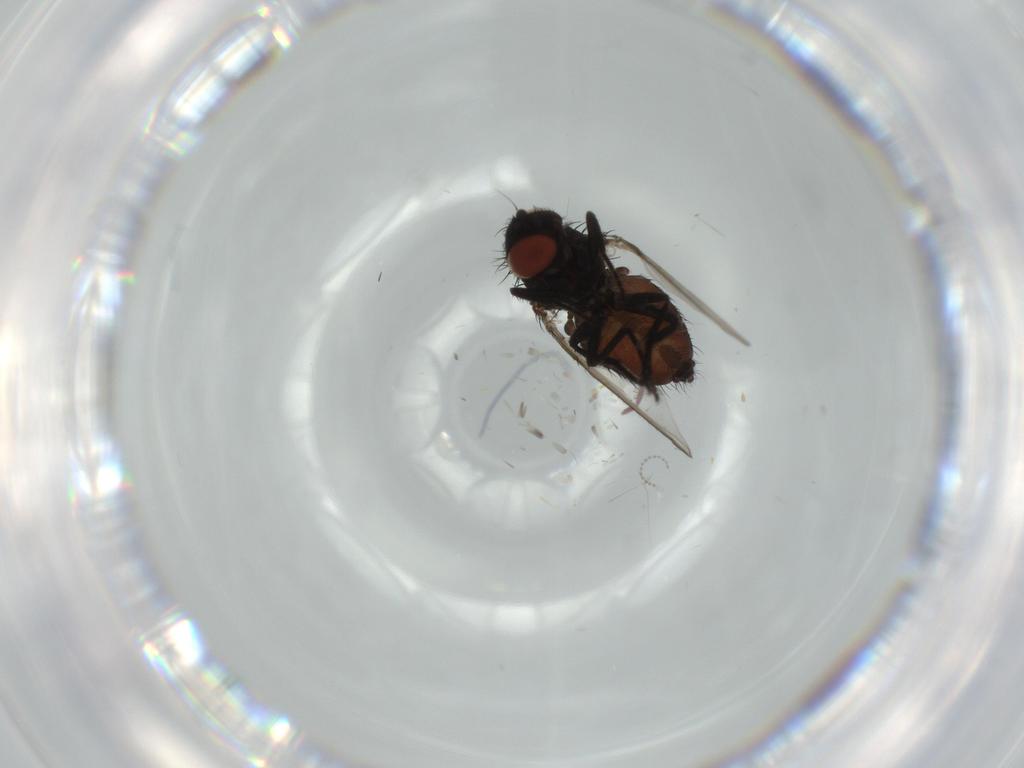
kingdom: Animalia
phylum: Arthropoda
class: Insecta
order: Diptera
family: Milichiidae
